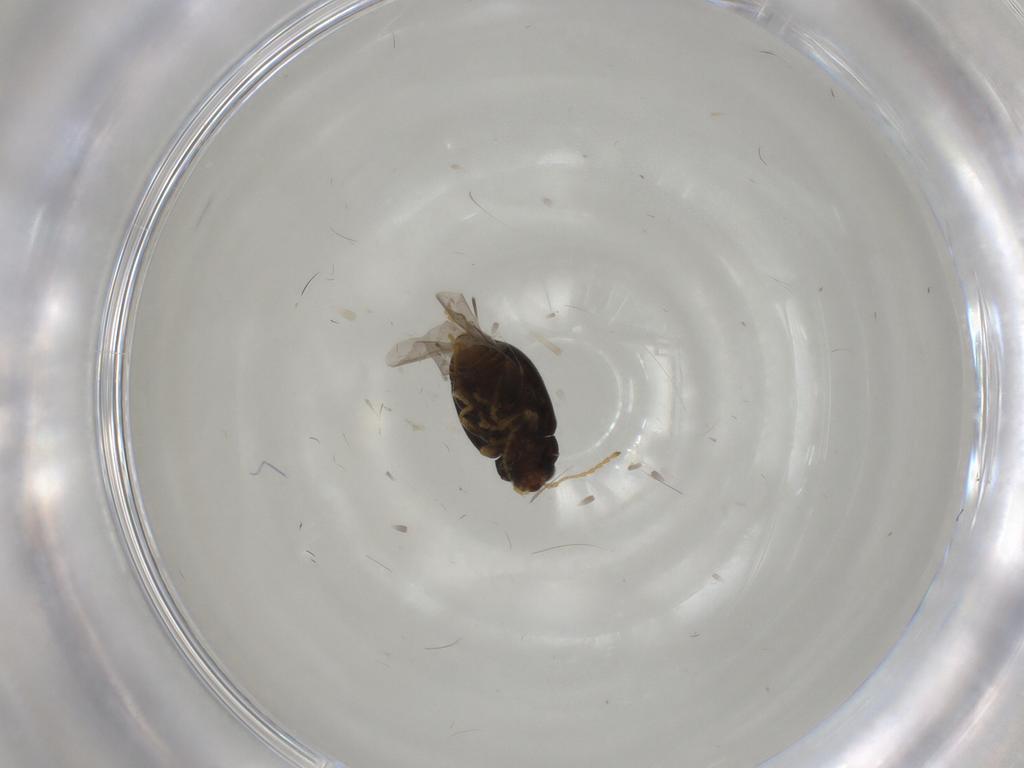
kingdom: Animalia
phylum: Arthropoda
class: Insecta
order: Coleoptera
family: Chrysomelidae
